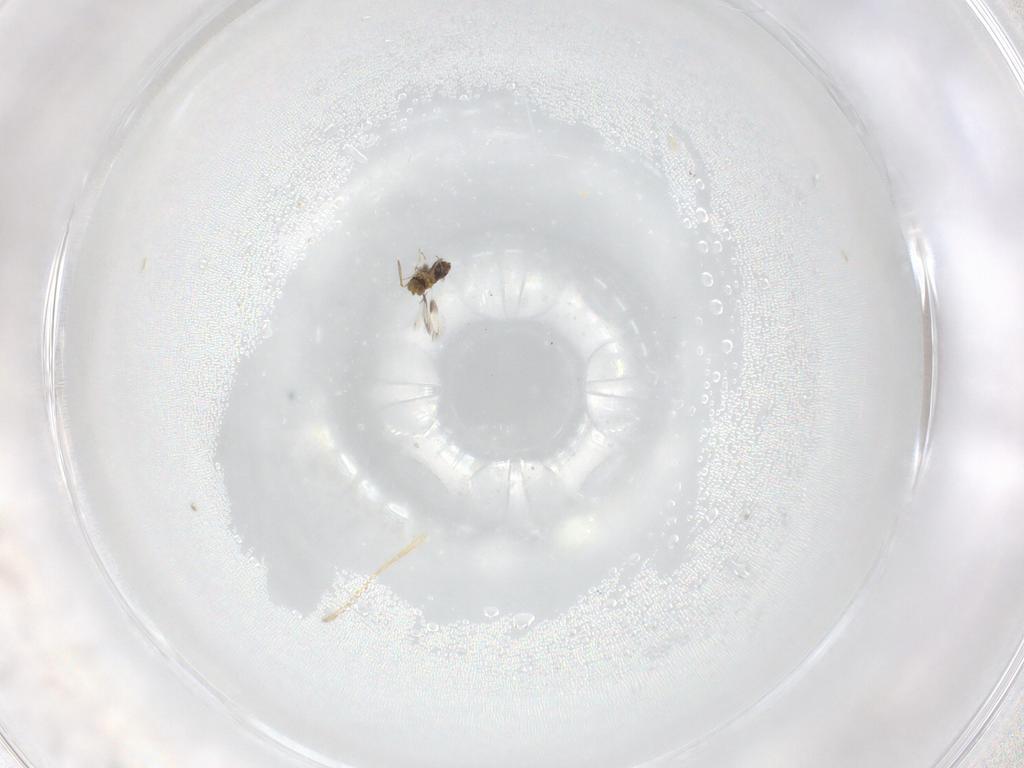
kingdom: Animalia
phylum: Arthropoda
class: Insecta
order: Hymenoptera
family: Aphelinidae
